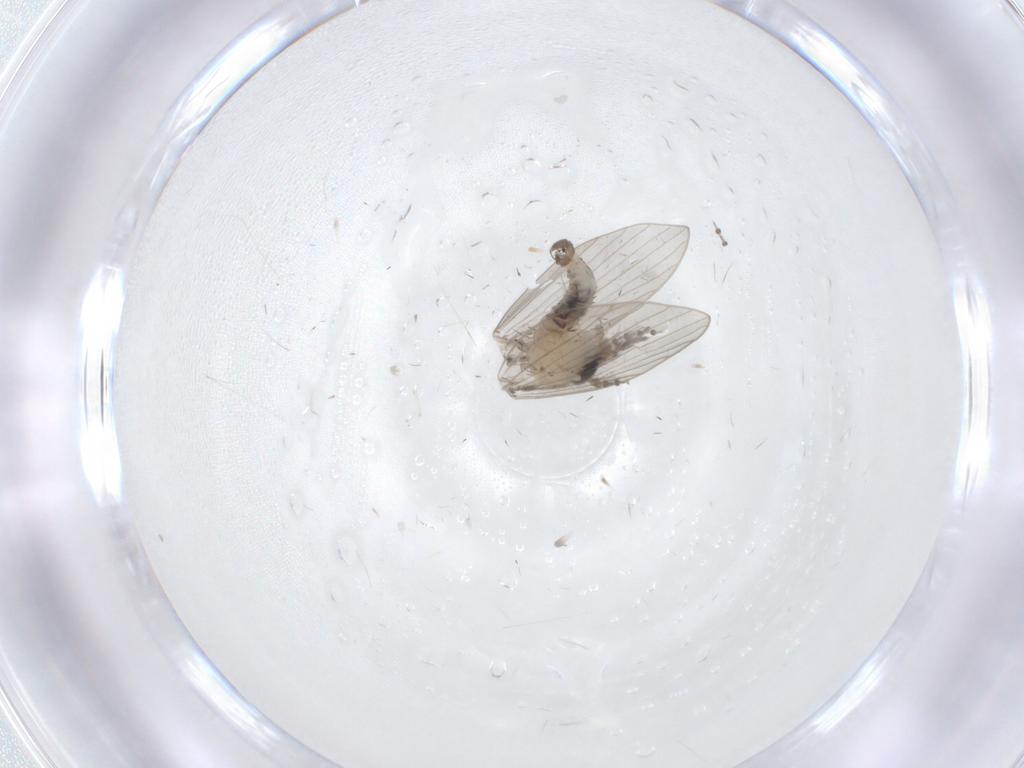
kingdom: Animalia
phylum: Arthropoda
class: Insecta
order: Diptera
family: Psychodidae
